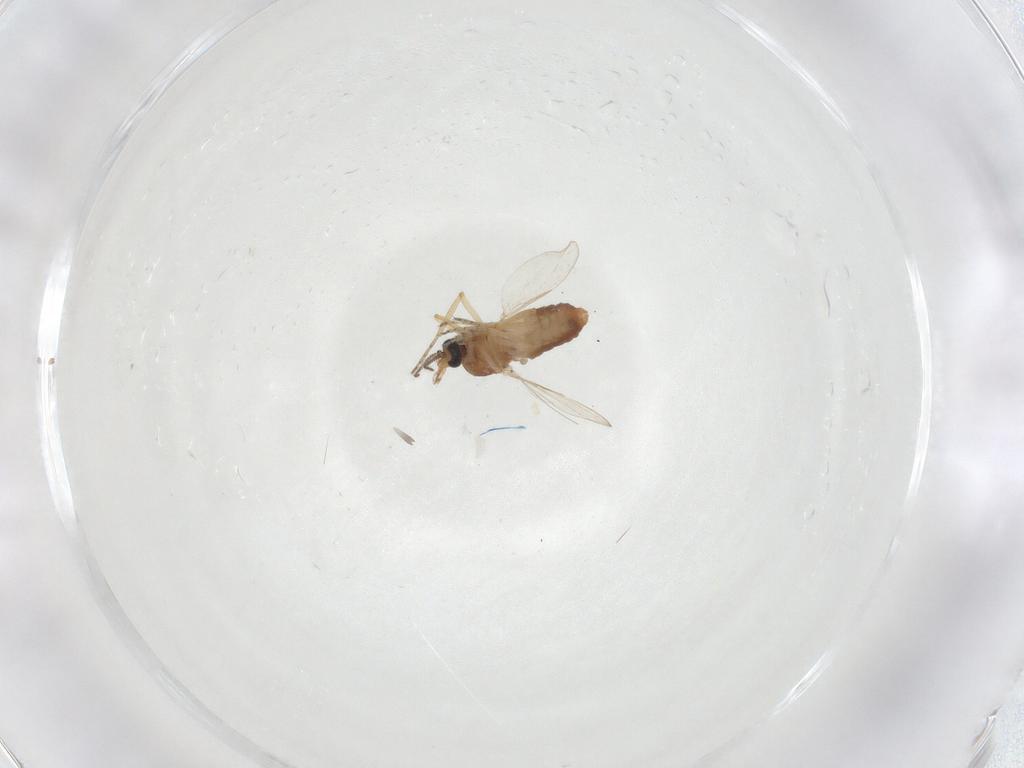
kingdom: Animalia
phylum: Arthropoda
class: Insecta
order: Diptera
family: Ceratopogonidae
